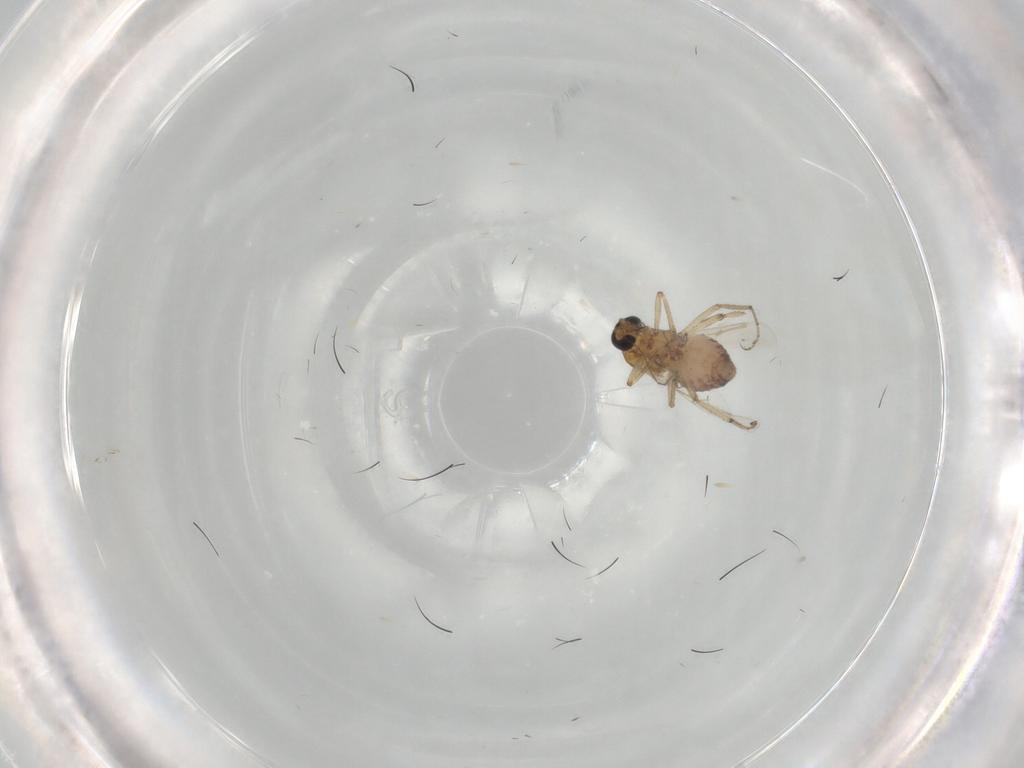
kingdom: Animalia
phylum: Arthropoda
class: Insecta
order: Diptera
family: Ceratopogonidae
